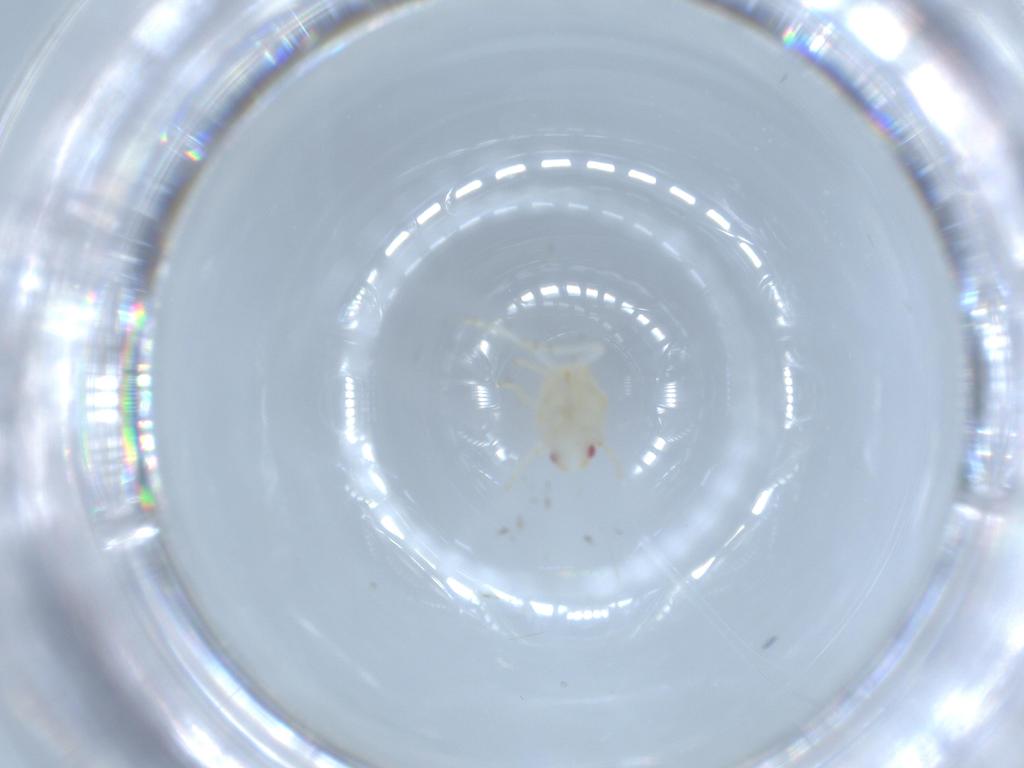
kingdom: Animalia
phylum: Arthropoda
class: Insecta
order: Hemiptera
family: Flatidae
